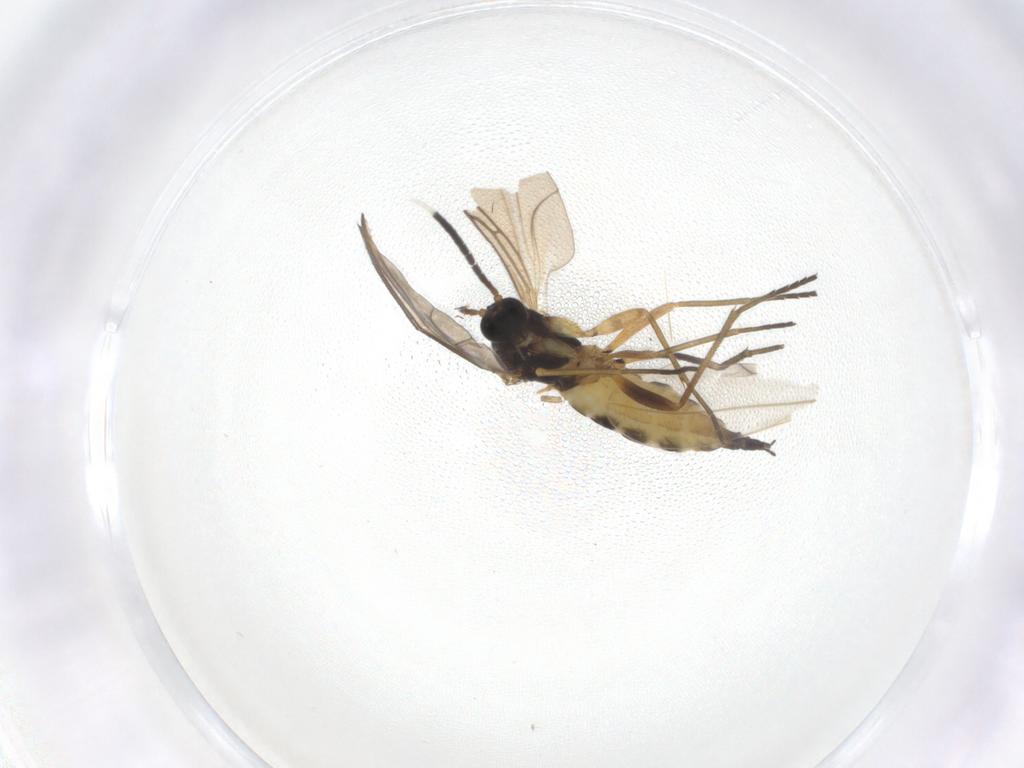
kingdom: Animalia
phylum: Arthropoda
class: Insecta
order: Diptera
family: Sciaridae
